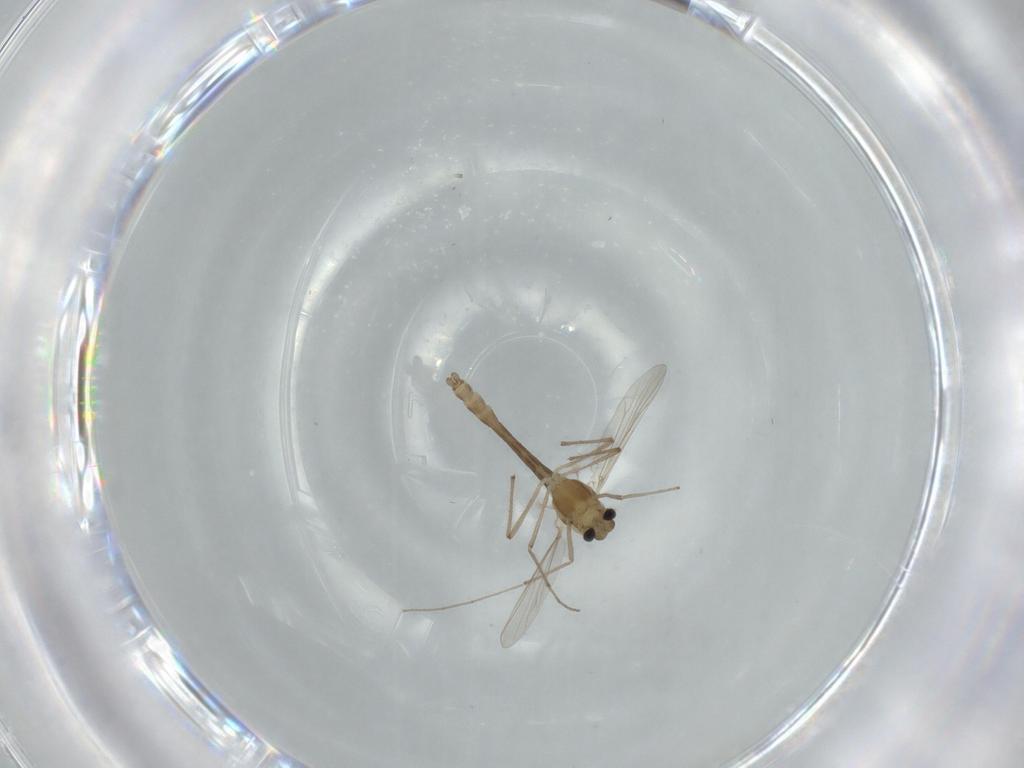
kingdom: Animalia
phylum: Arthropoda
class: Insecta
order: Diptera
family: Chironomidae
